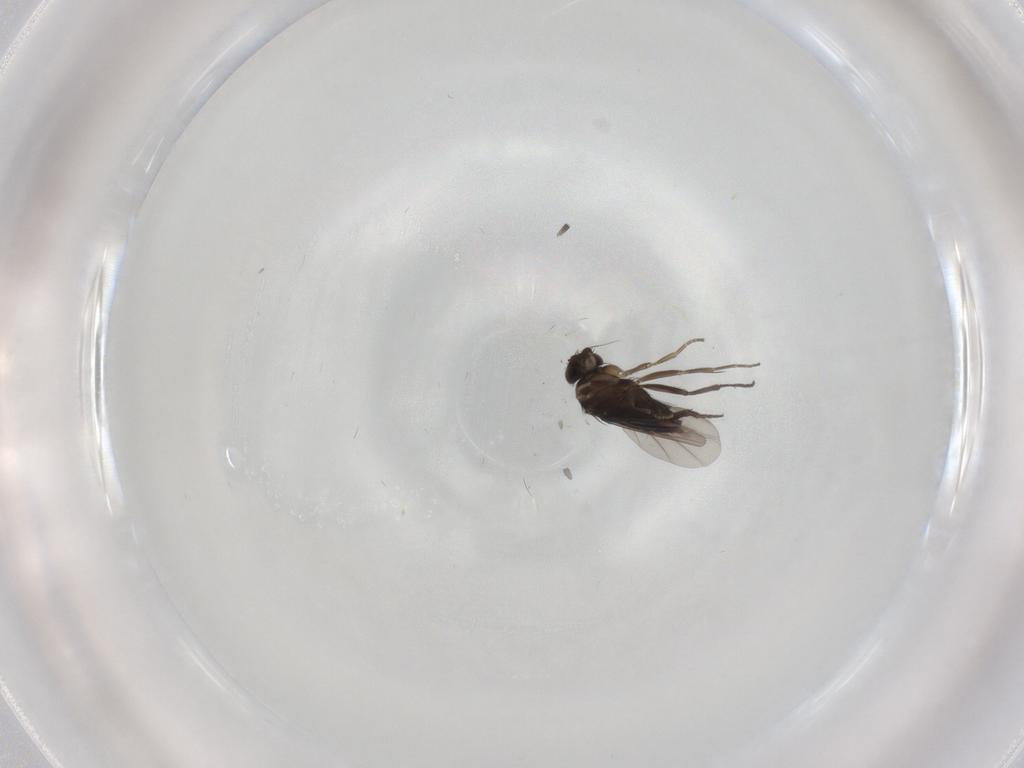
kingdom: Animalia
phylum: Arthropoda
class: Insecta
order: Diptera
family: Phoridae
